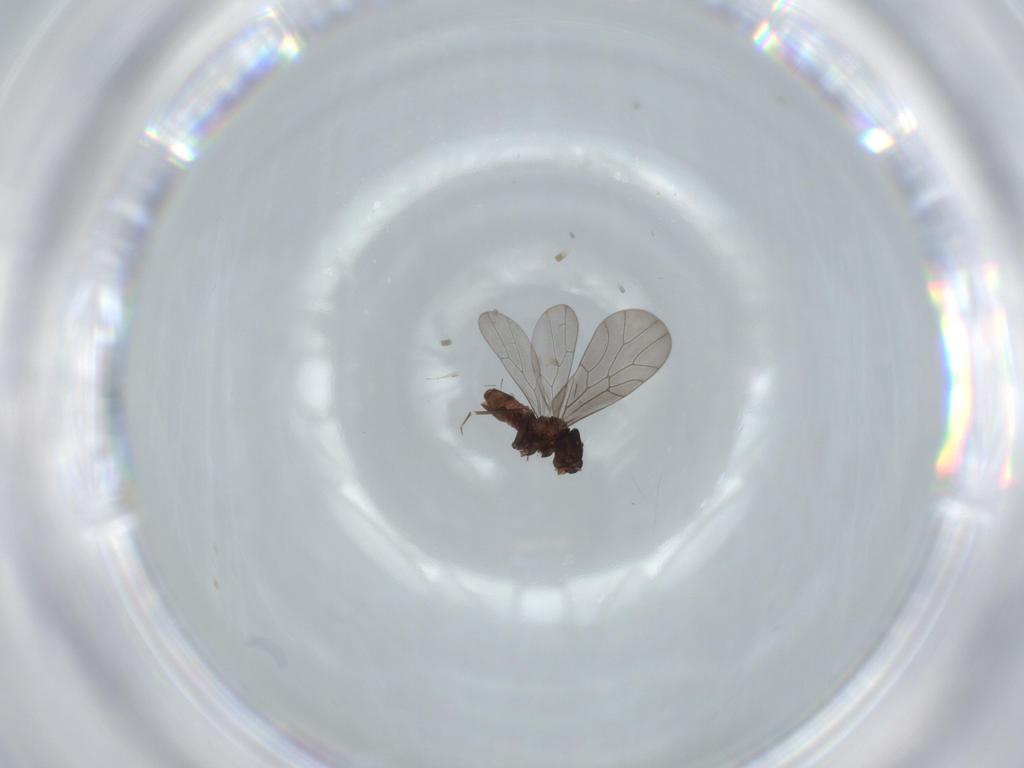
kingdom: Animalia
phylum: Arthropoda
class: Insecta
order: Psocodea
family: Lepidopsocidae
